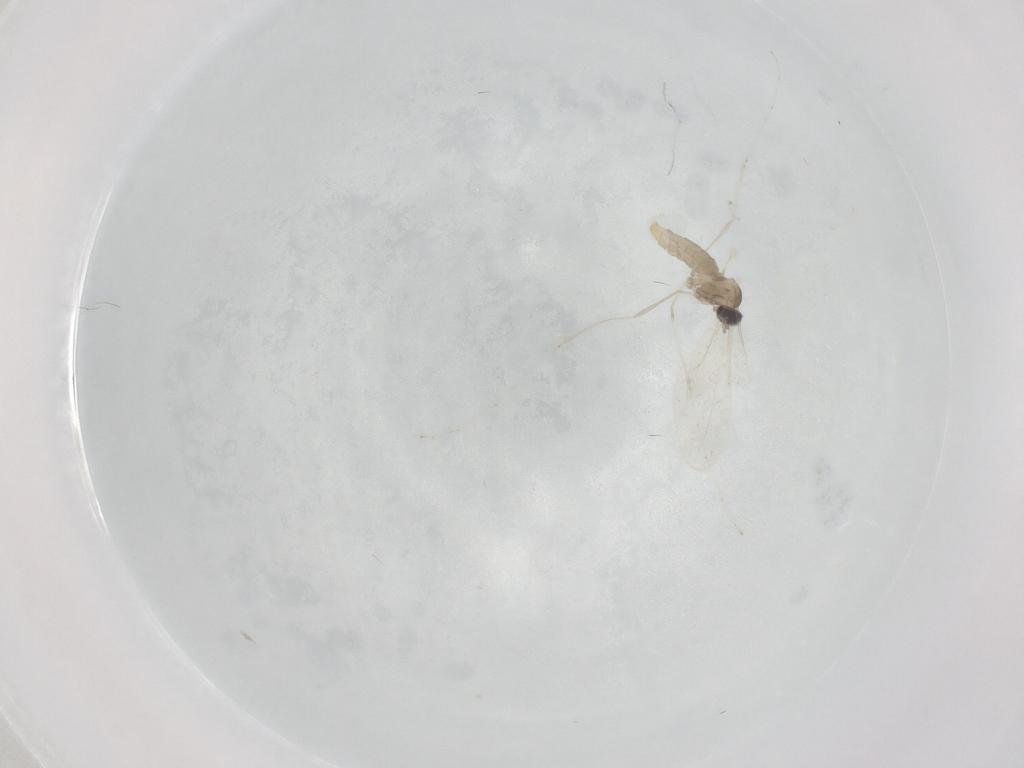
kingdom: Animalia
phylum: Arthropoda
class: Insecta
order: Diptera
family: Cecidomyiidae
